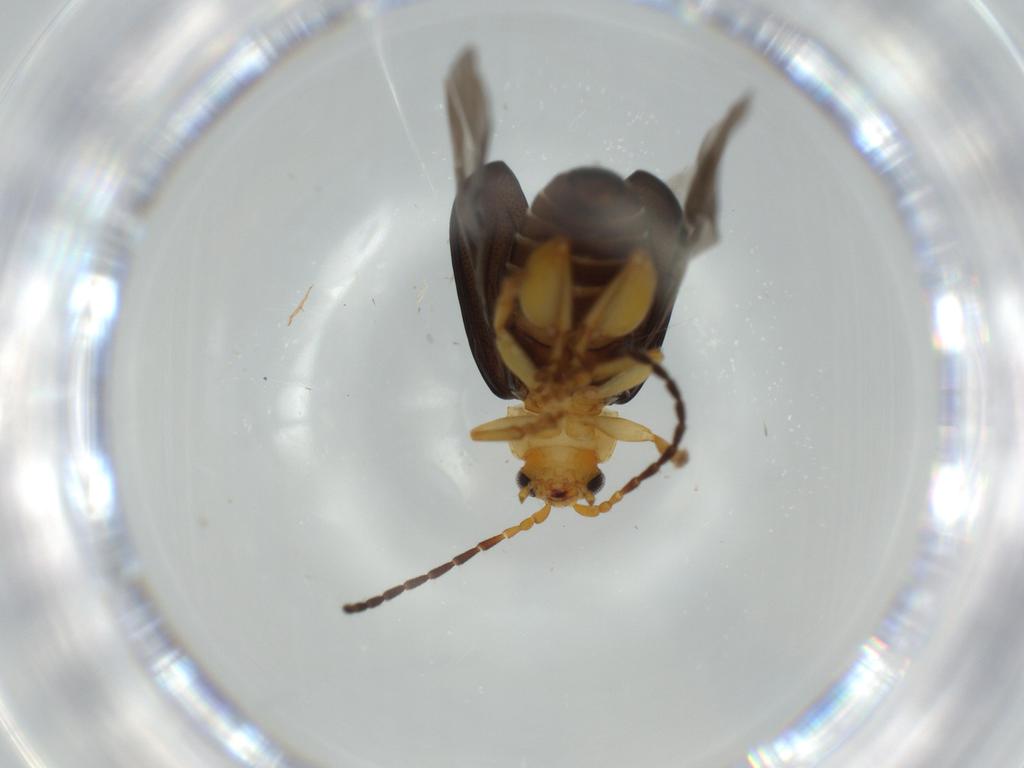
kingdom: Animalia
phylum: Arthropoda
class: Insecta
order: Coleoptera
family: Chrysomelidae
